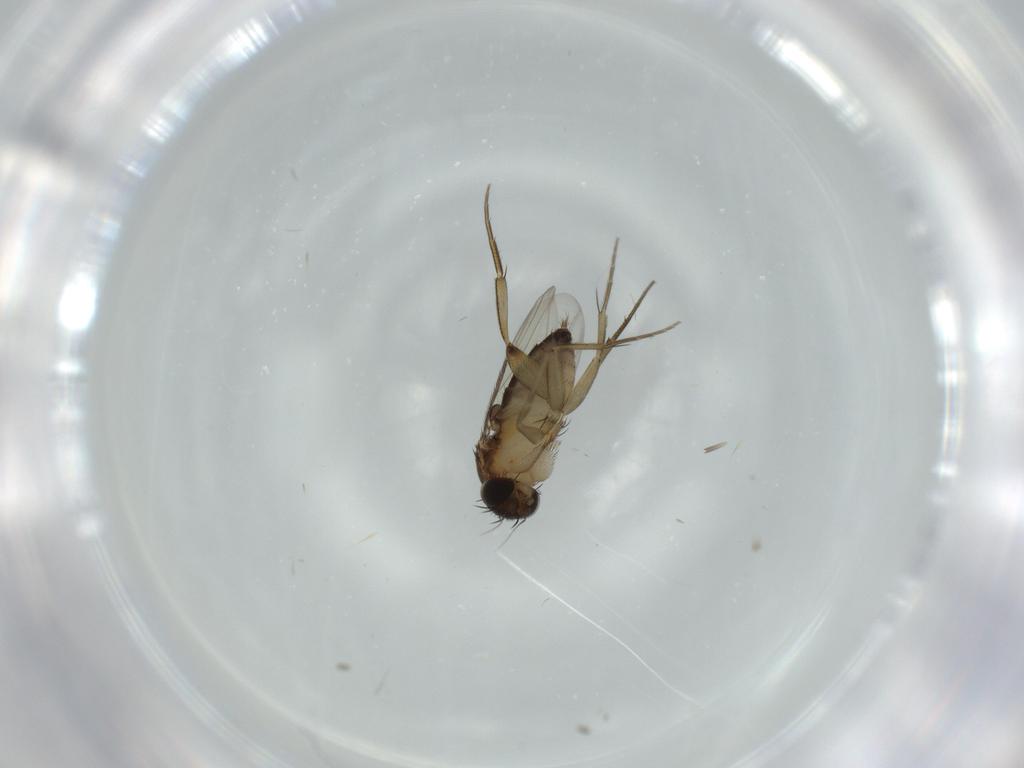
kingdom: Animalia
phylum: Arthropoda
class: Insecta
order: Diptera
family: Phoridae
